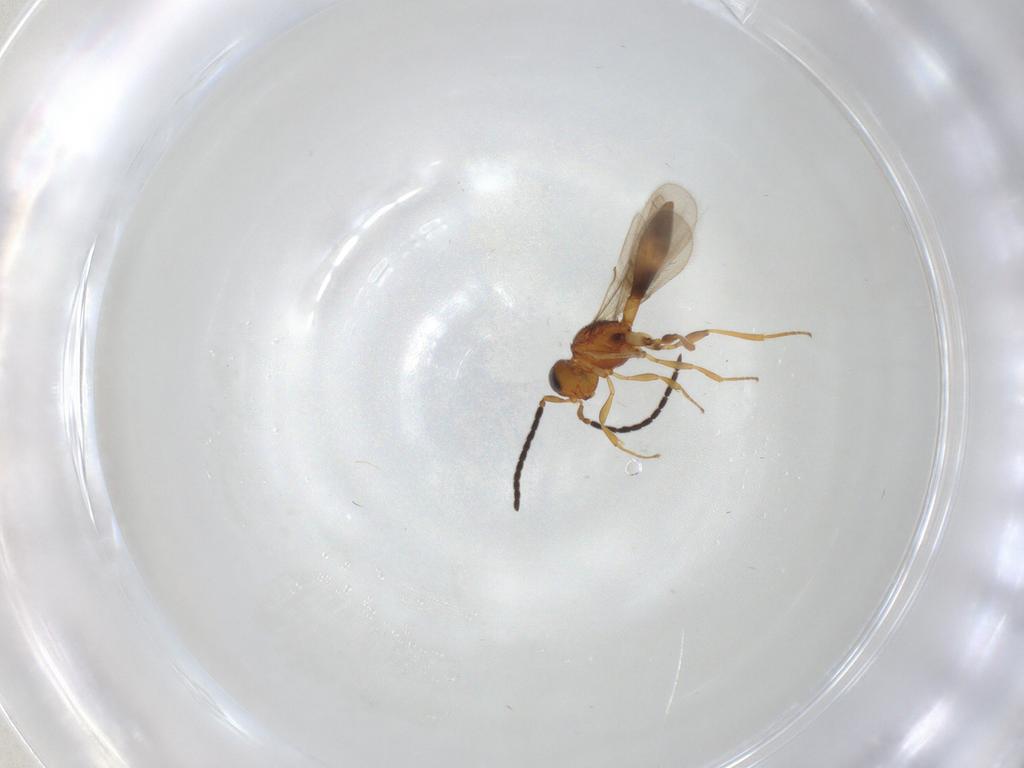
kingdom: Animalia
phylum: Arthropoda
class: Insecta
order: Hymenoptera
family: Scelionidae
